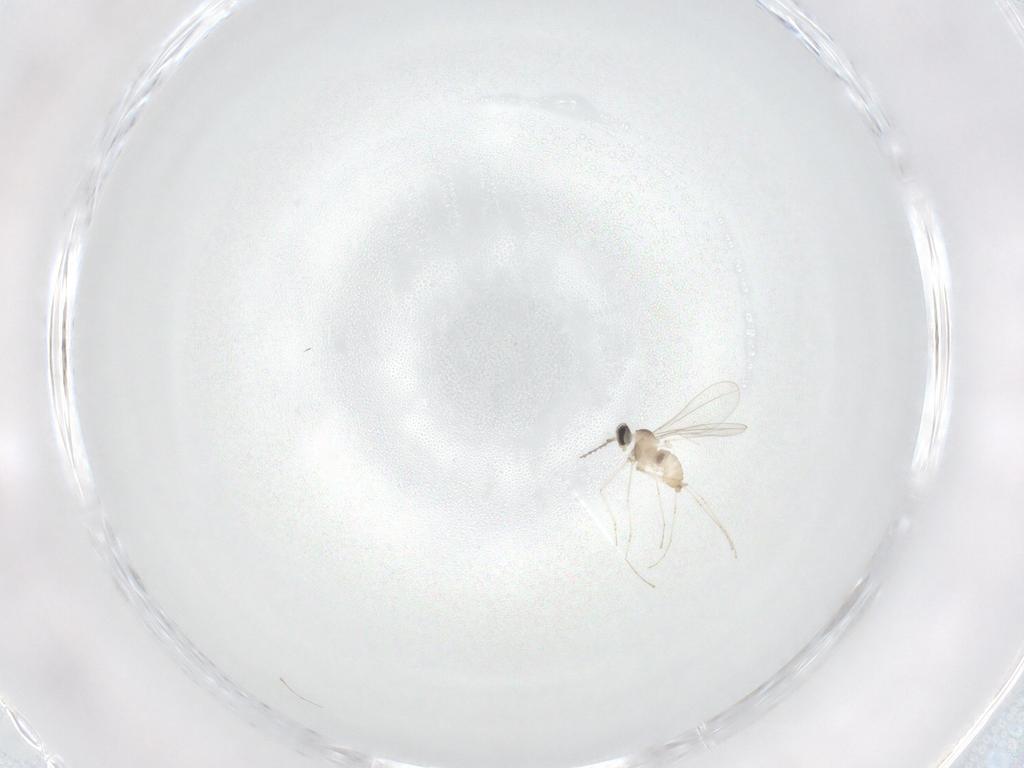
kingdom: Animalia
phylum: Arthropoda
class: Insecta
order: Diptera
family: Cecidomyiidae
